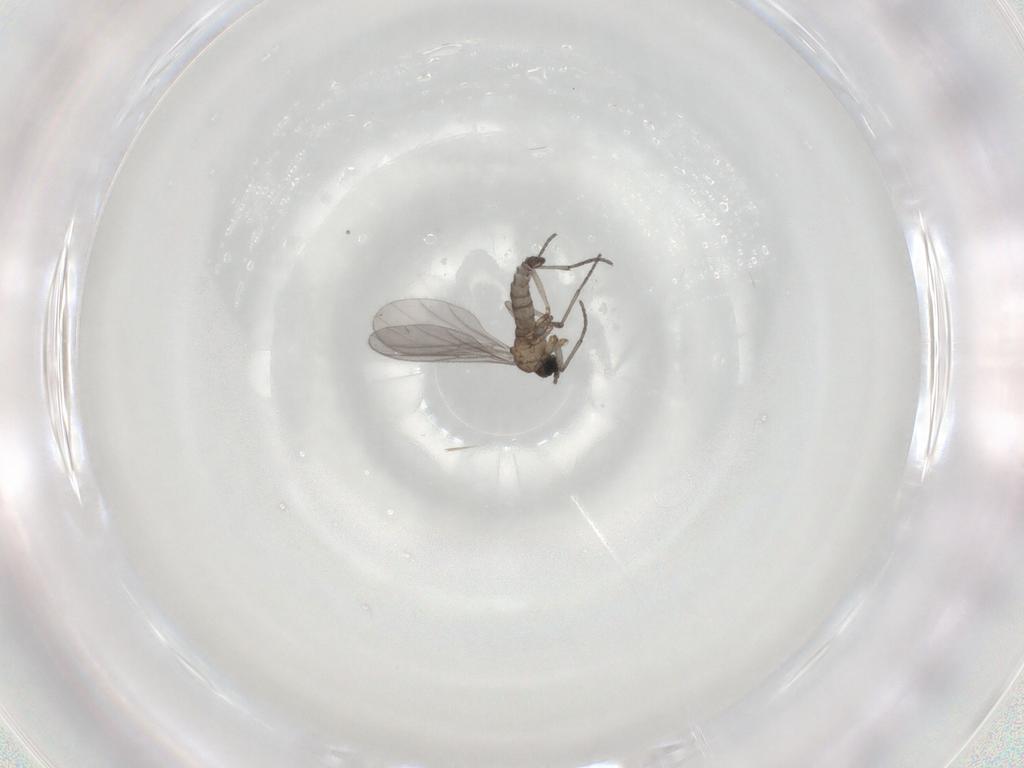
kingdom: Animalia
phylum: Arthropoda
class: Insecta
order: Diptera
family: Sciaridae
